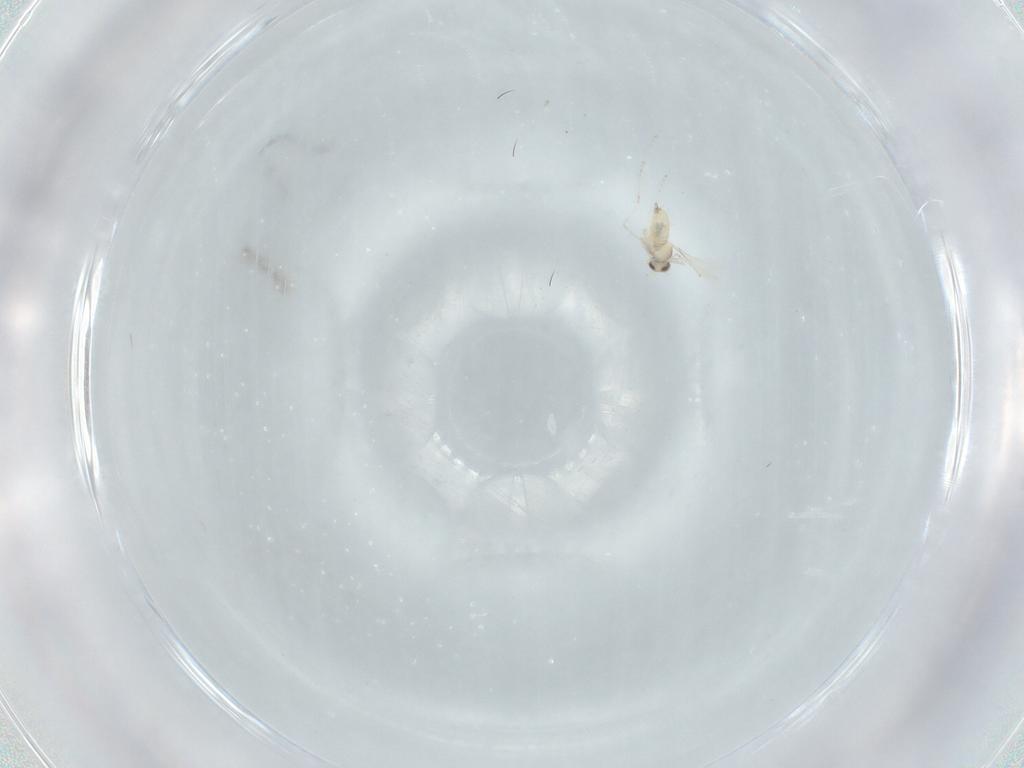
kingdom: Animalia
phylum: Arthropoda
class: Insecta
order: Diptera
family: Cecidomyiidae
